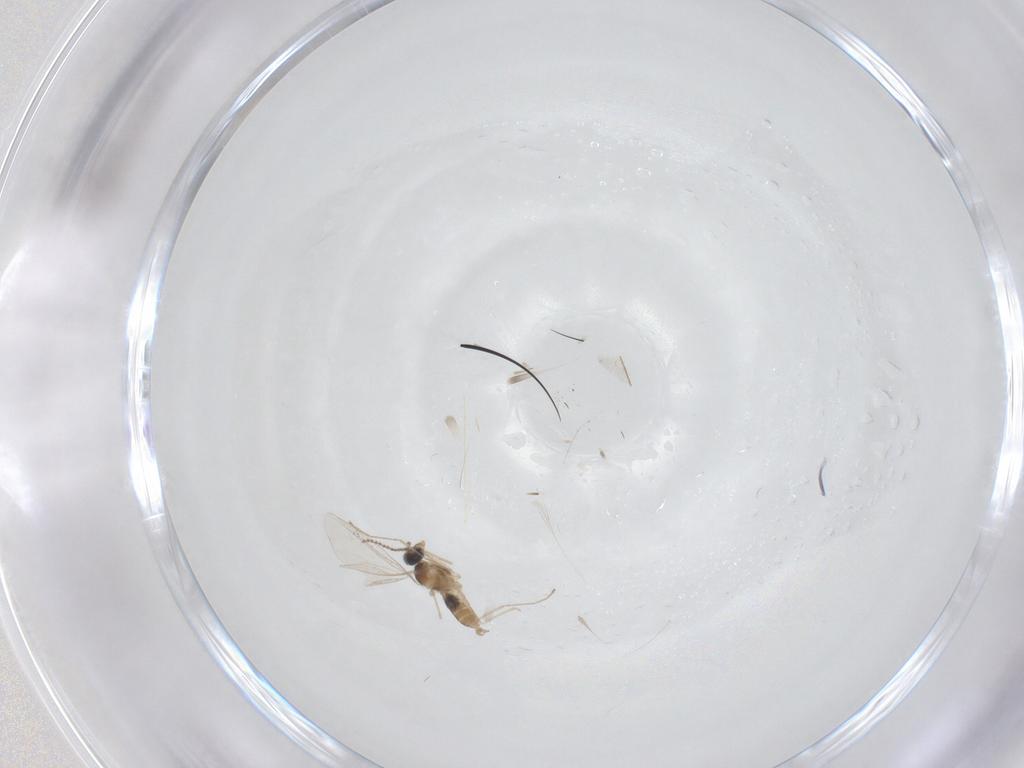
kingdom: Animalia
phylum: Arthropoda
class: Insecta
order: Diptera
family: Cecidomyiidae
